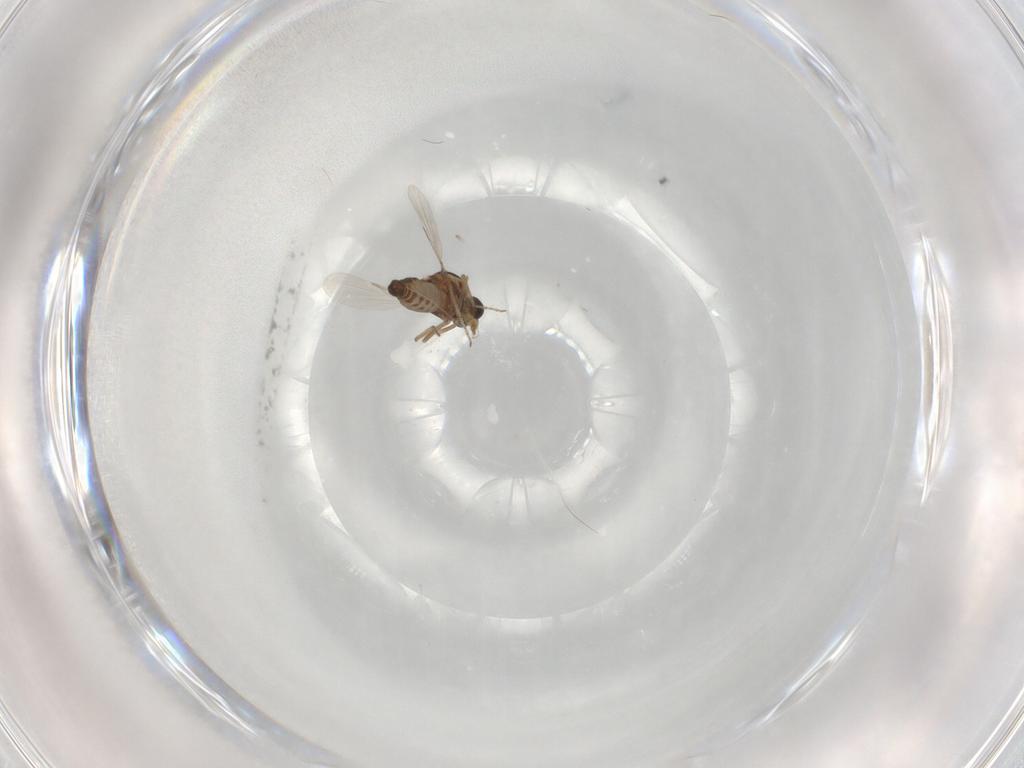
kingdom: Animalia
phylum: Arthropoda
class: Insecta
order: Diptera
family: Ceratopogonidae
